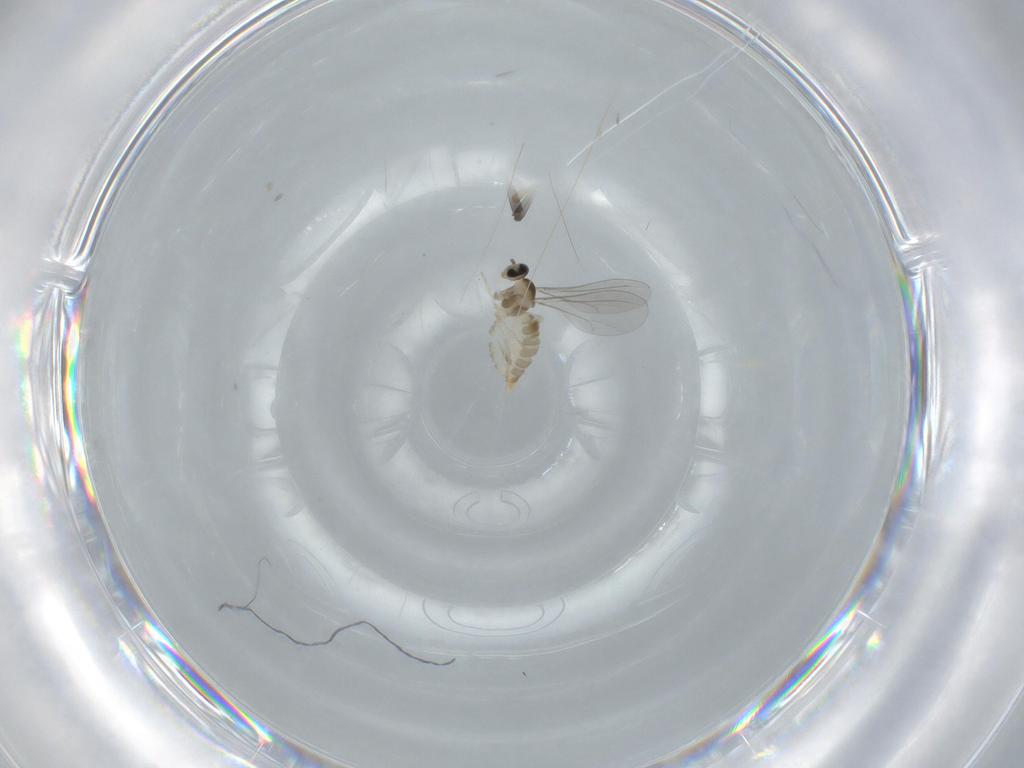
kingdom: Animalia
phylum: Arthropoda
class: Insecta
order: Diptera
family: Cecidomyiidae
